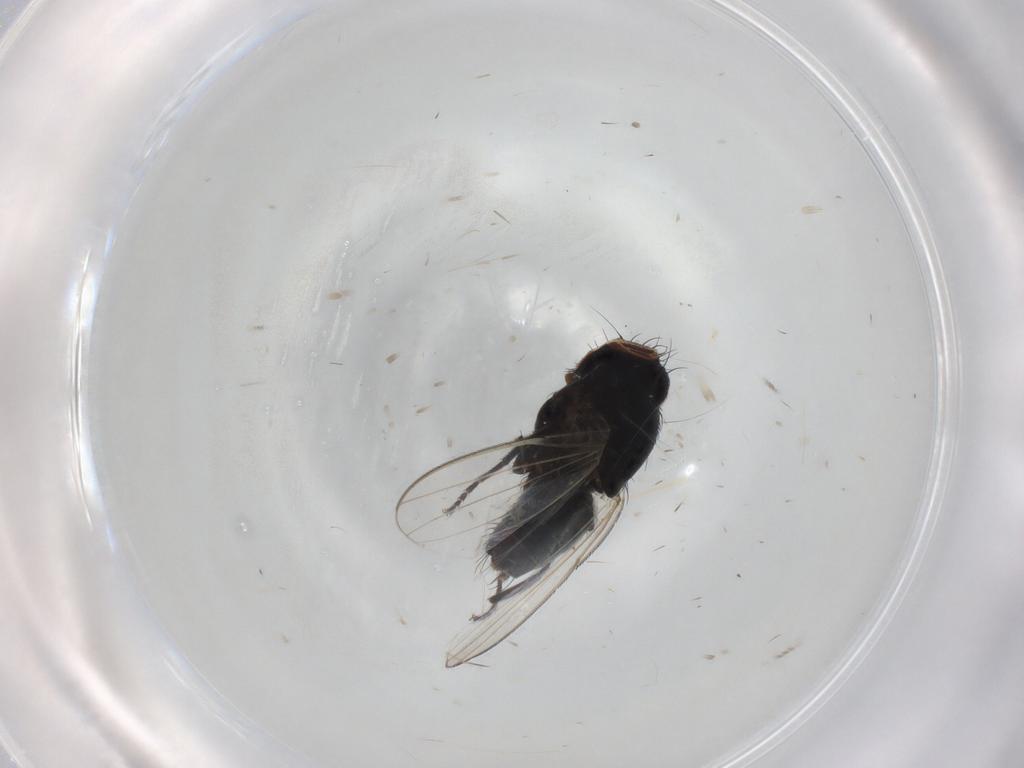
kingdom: Animalia
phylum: Arthropoda
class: Insecta
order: Diptera
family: Milichiidae
